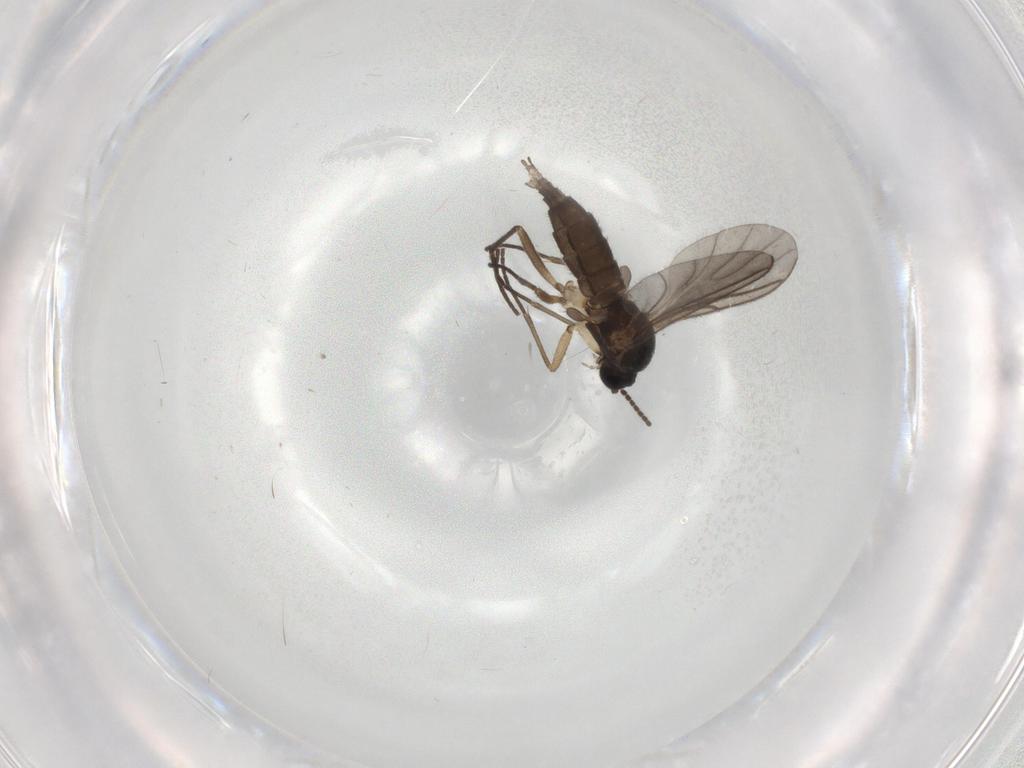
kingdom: Animalia
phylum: Arthropoda
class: Insecta
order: Diptera
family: Sciaridae
